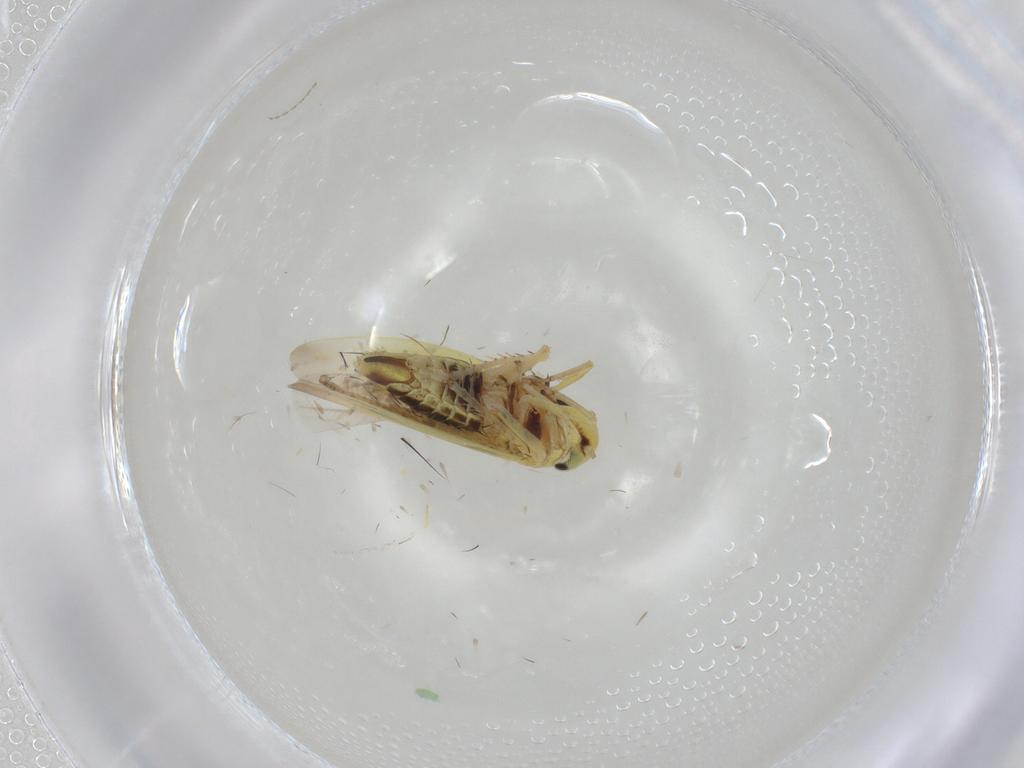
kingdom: Animalia
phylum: Arthropoda
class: Insecta
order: Hemiptera
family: Cicadellidae
